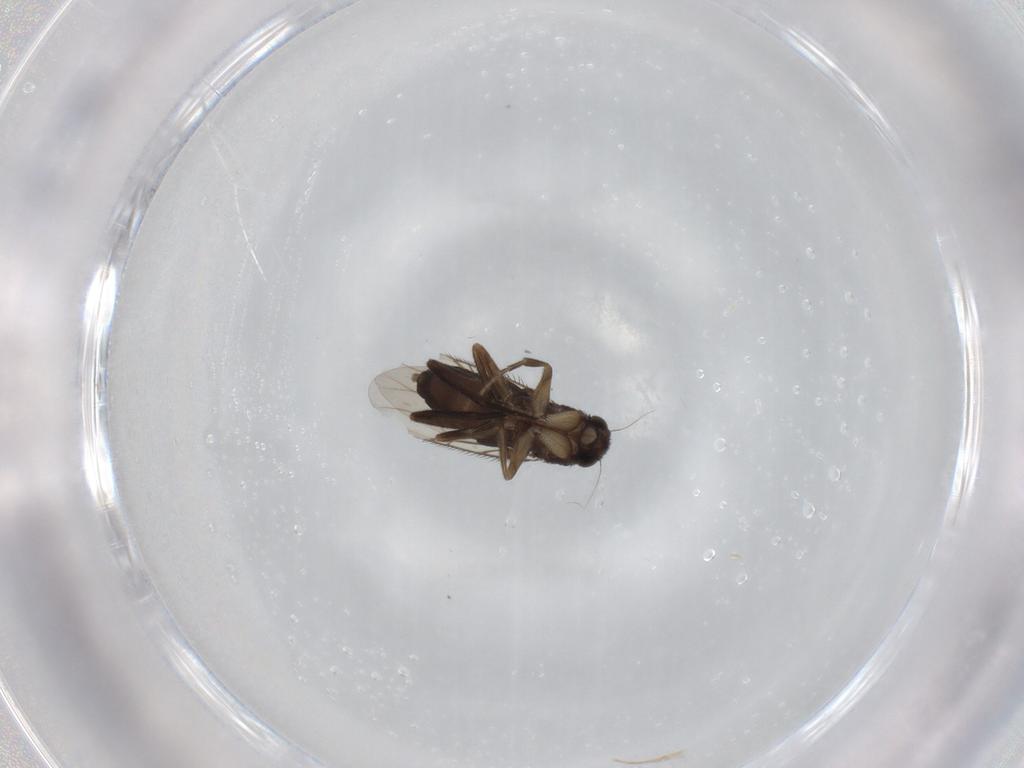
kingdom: Animalia
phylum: Arthropoda
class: Insecta
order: Diptera
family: Phoridae
